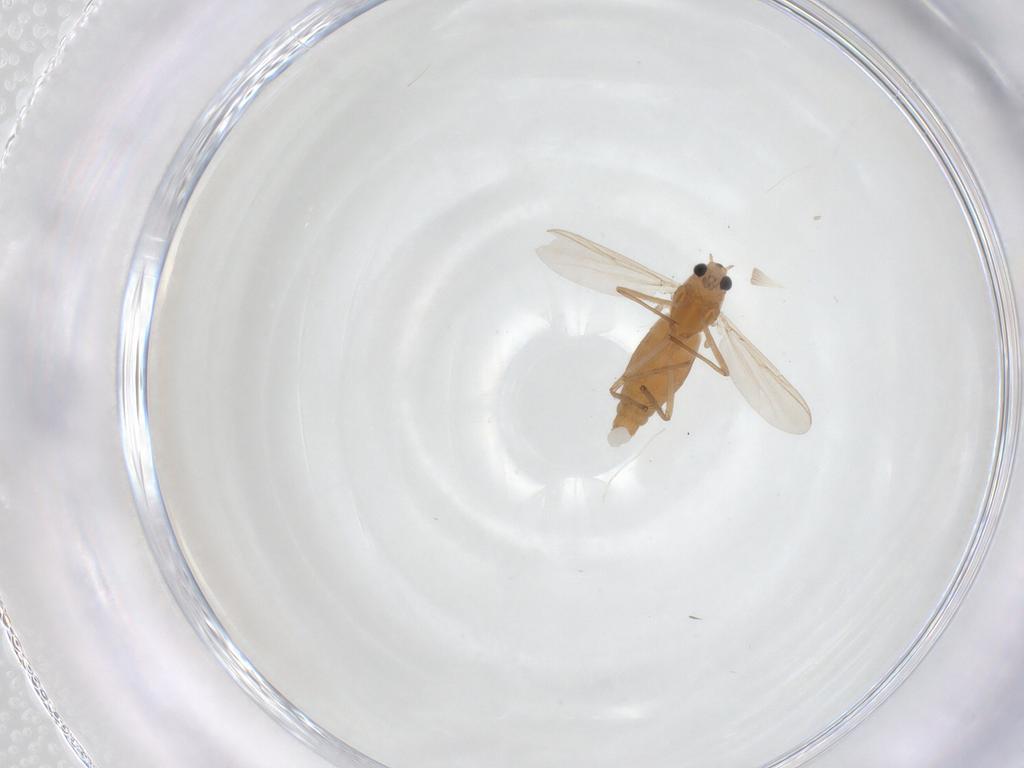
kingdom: Animalia
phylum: Arthropoda
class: Insecta
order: Diptera
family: Chironomidae
